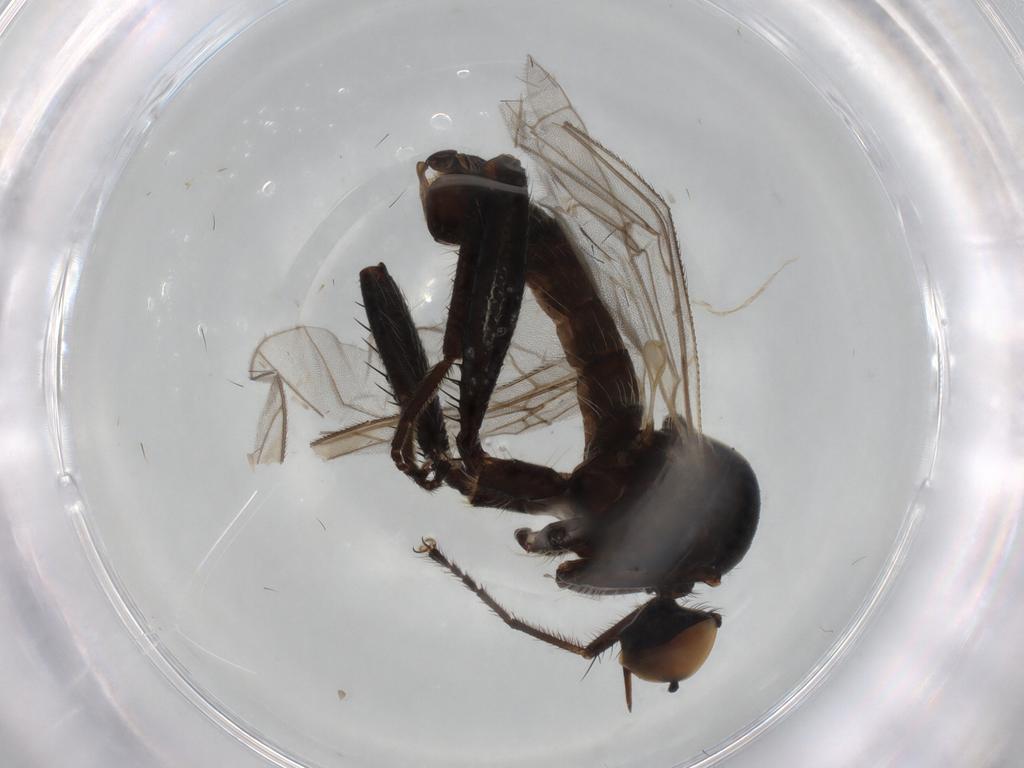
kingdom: Animalia
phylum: Arthropoda
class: Insecta
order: Diptera
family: Hybotidae
